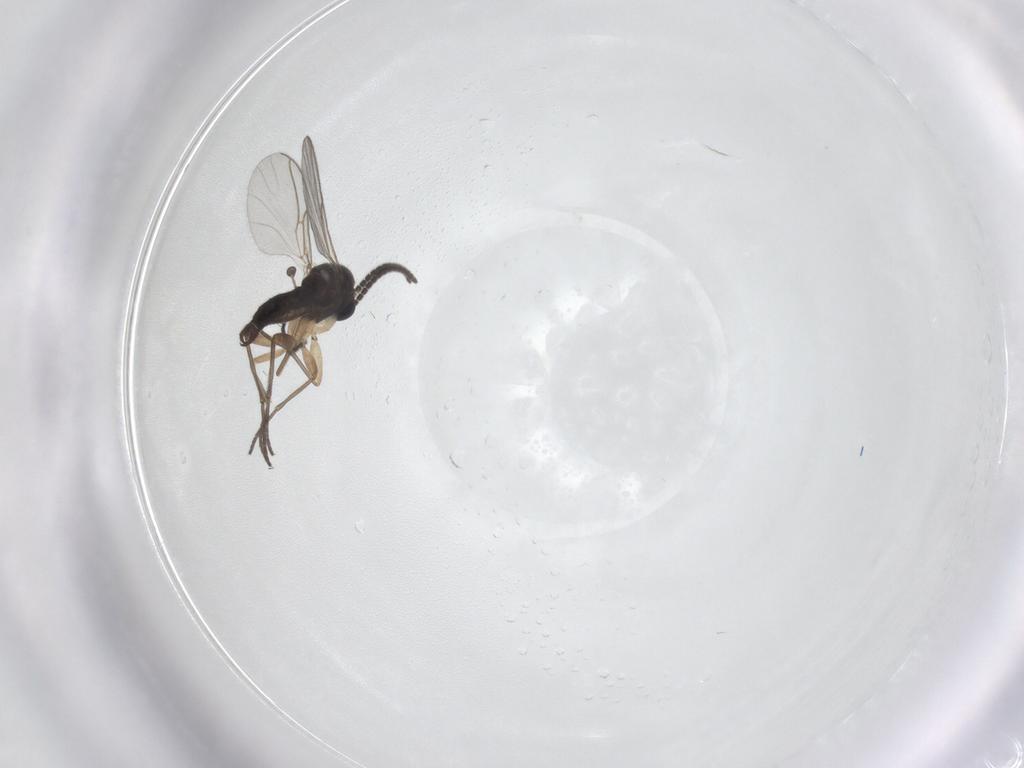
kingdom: Animalia
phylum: Arthropoda
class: Insecta
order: Diptera
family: Sciaridae
